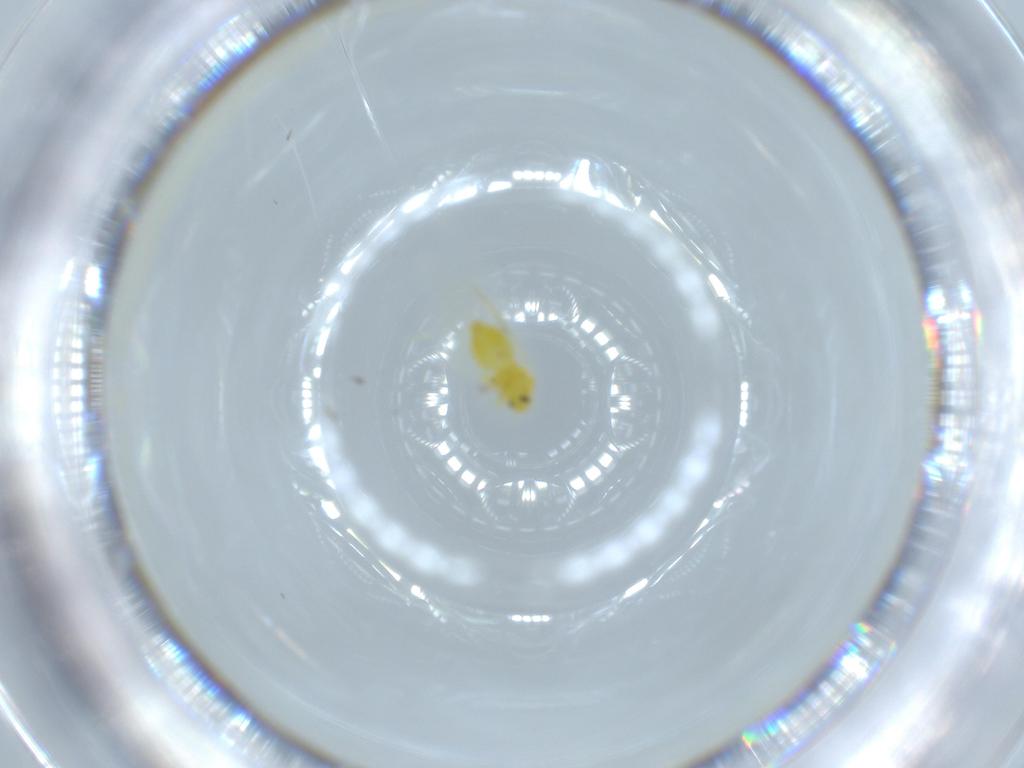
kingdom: Animalia
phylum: Arthropoda
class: Insecta
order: Hemiptera
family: Aleyrodidae
